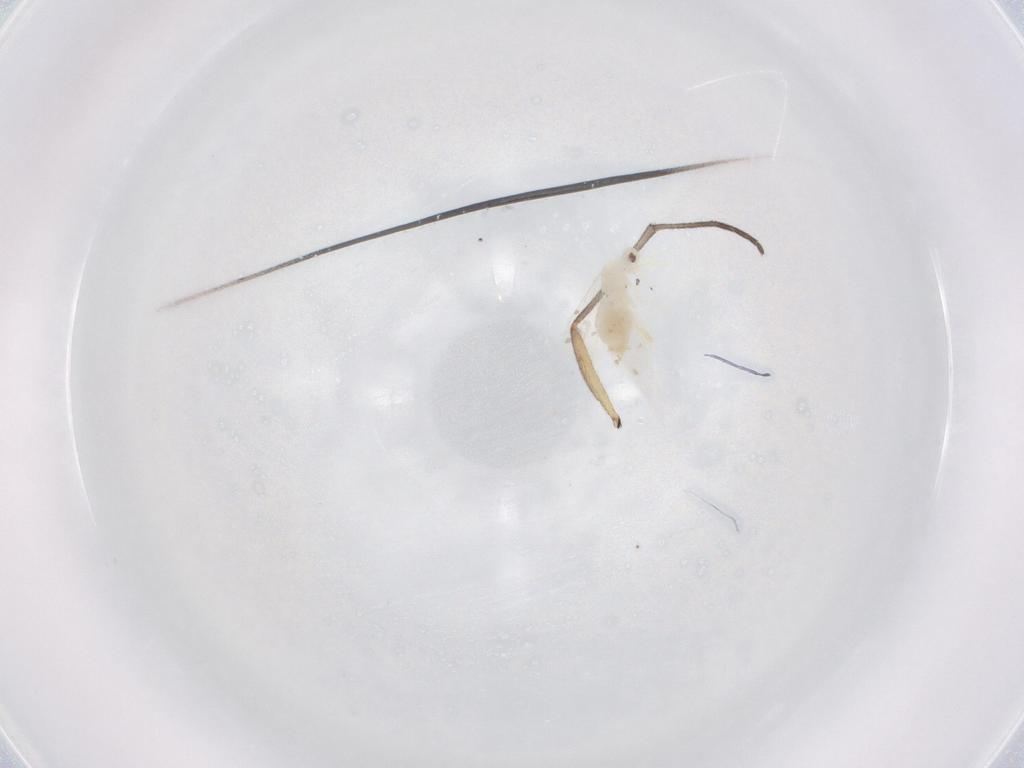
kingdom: Animalia
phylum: Arthropoda
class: Insecta
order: Hemiptera
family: Aleyrodidae
